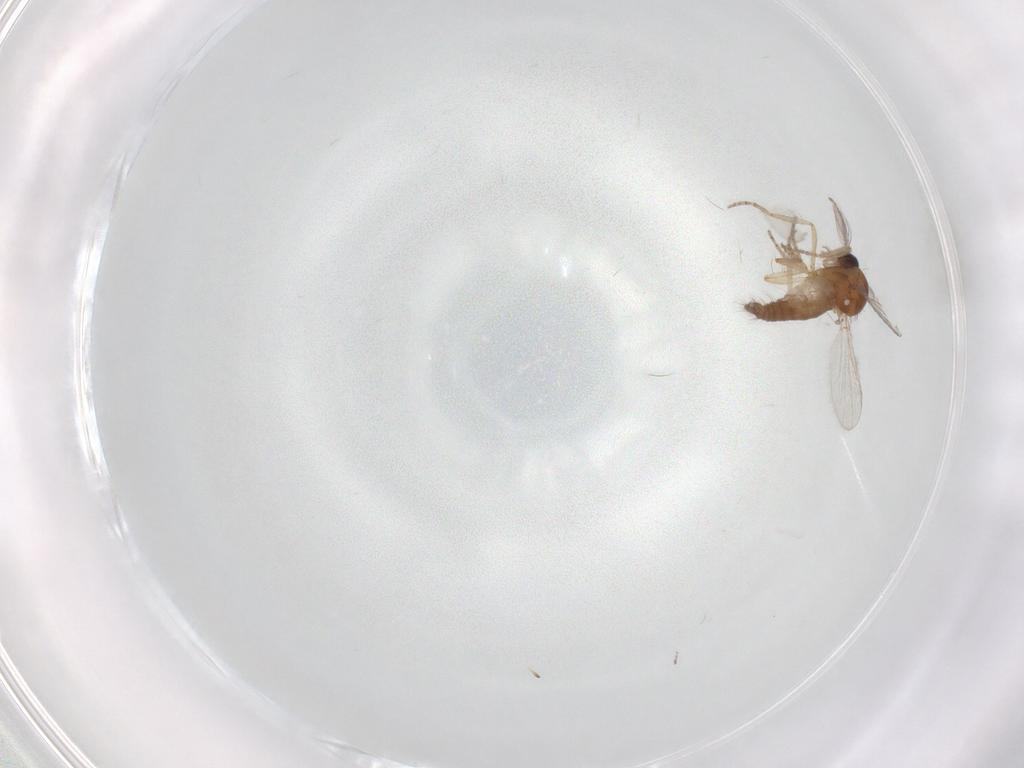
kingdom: Animalia
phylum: Arthropoda
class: Insecta
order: Diptera
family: Ceratopogonidae
